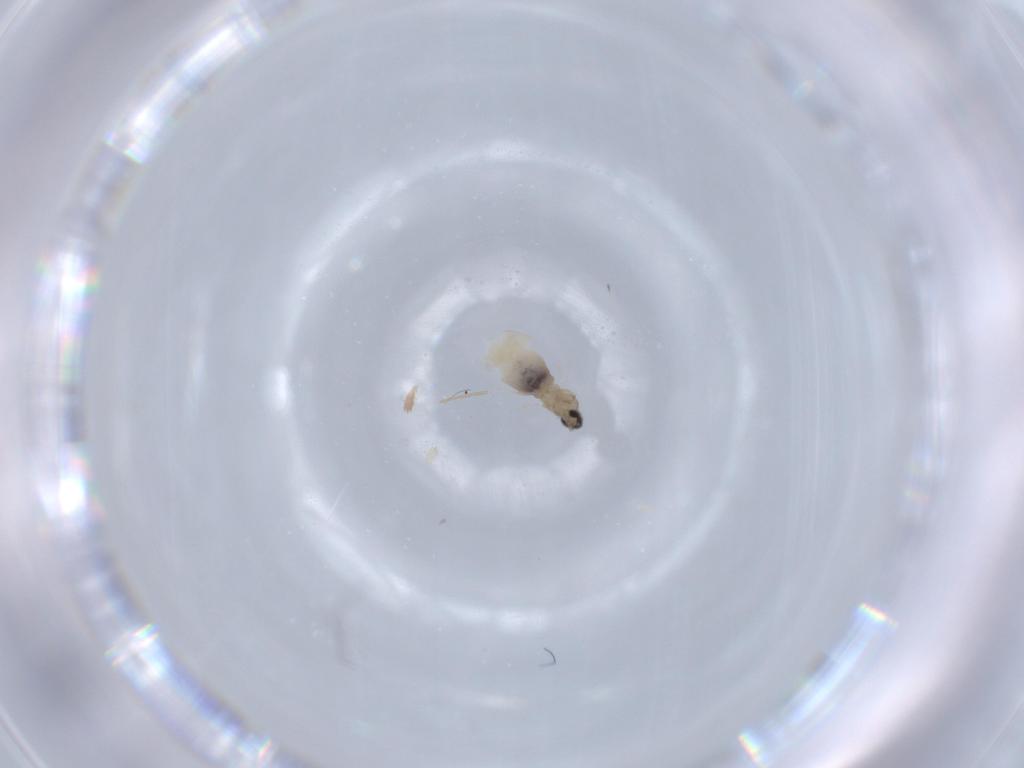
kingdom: Animalia
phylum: Arthropoda
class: Insecta
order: Diptera
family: Cecidomyiidae
